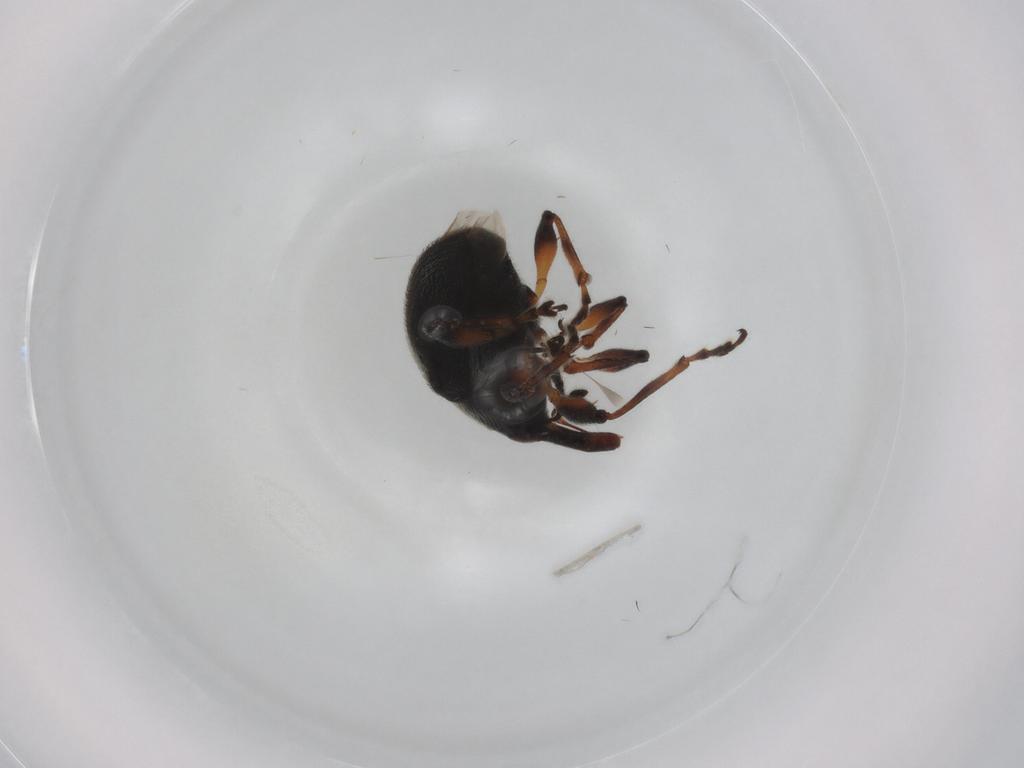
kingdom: Animalia
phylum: Arthropoda
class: Insecta
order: Coleoptera
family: Brentidae
